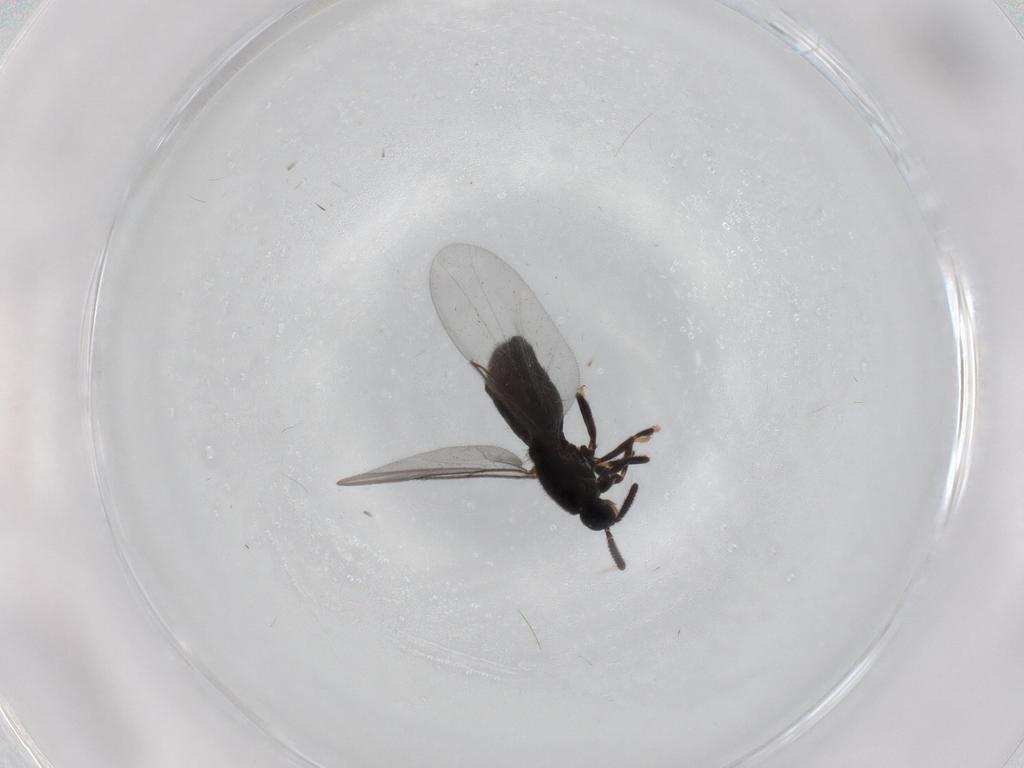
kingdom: Animalia
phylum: Arthropoda
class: Insecta
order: Diptera
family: Scatopsidae
